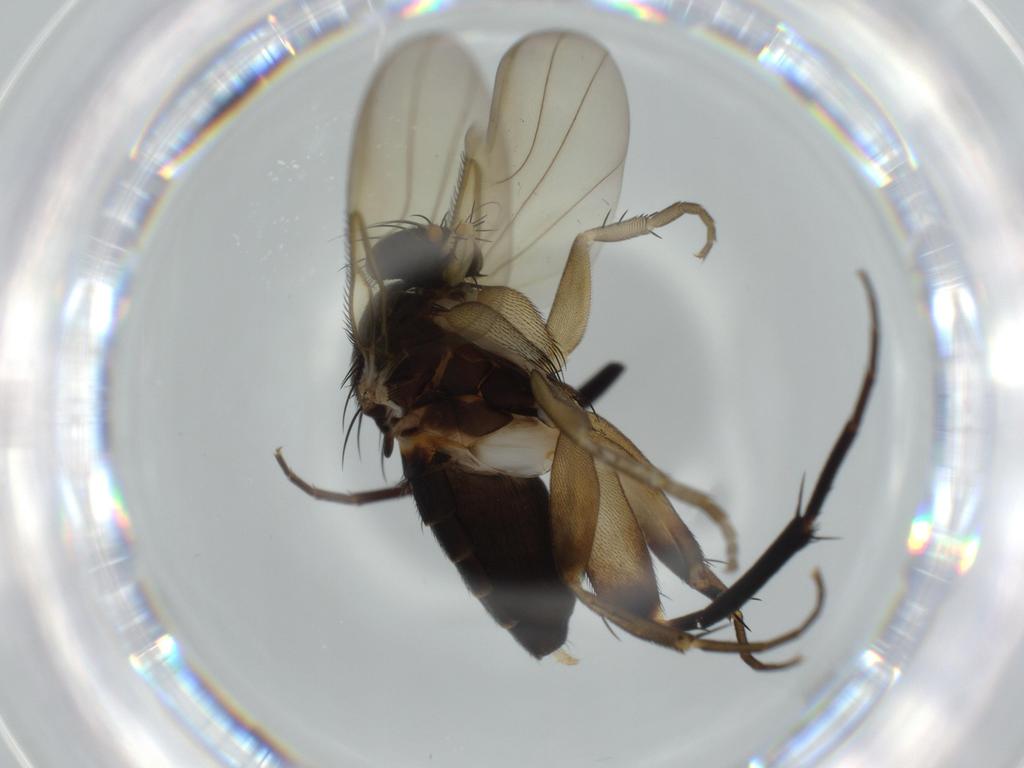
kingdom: Animalia
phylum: Arthropoda
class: Insecta
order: Diptera
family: Phoridae
